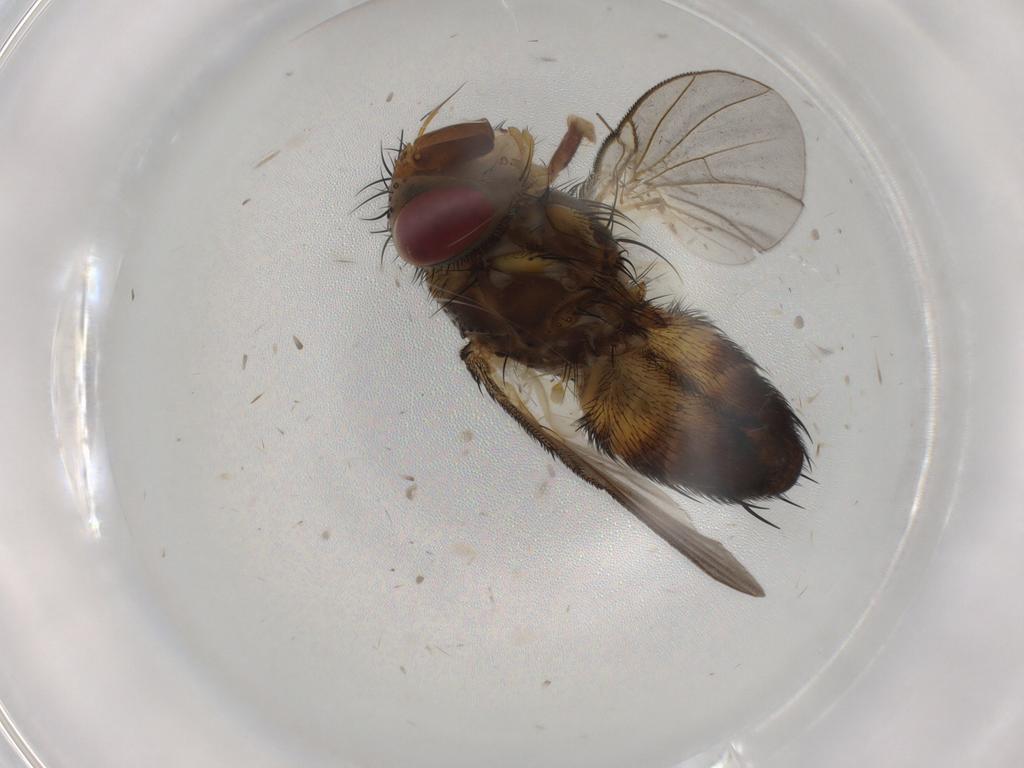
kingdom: Animalia
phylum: Arthropoda
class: Insecta
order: Diptera
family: Tachinidae
